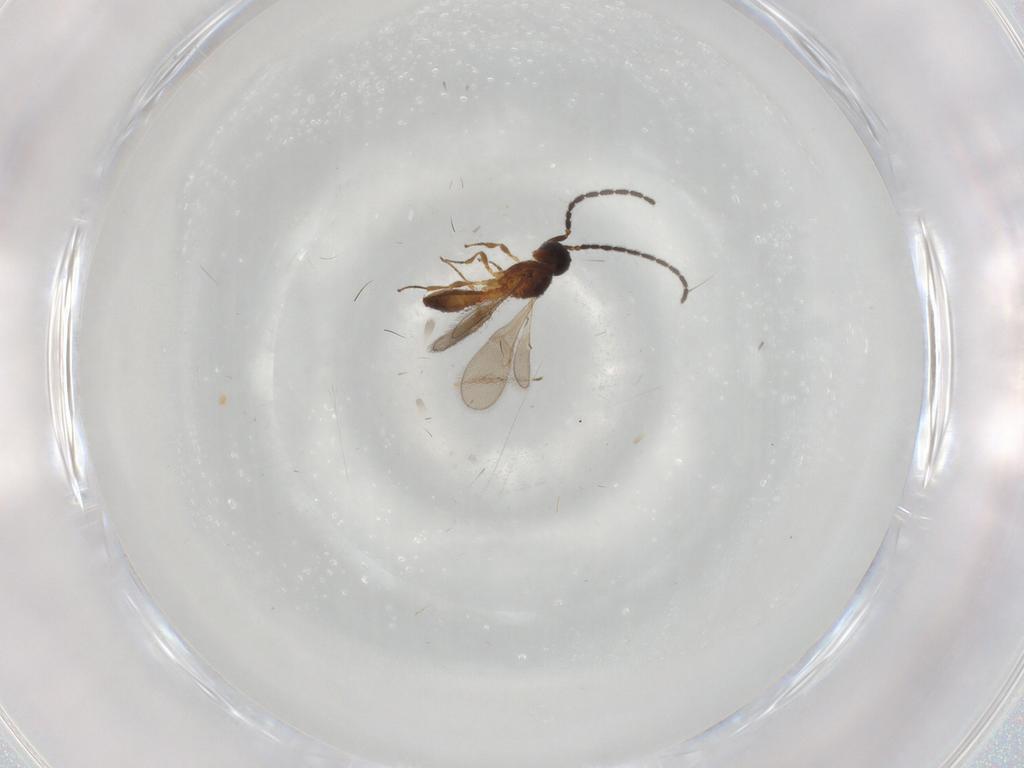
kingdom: Animalia
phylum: Arthropoda
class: Insecta
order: Hymenoptera
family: Scelionidae
